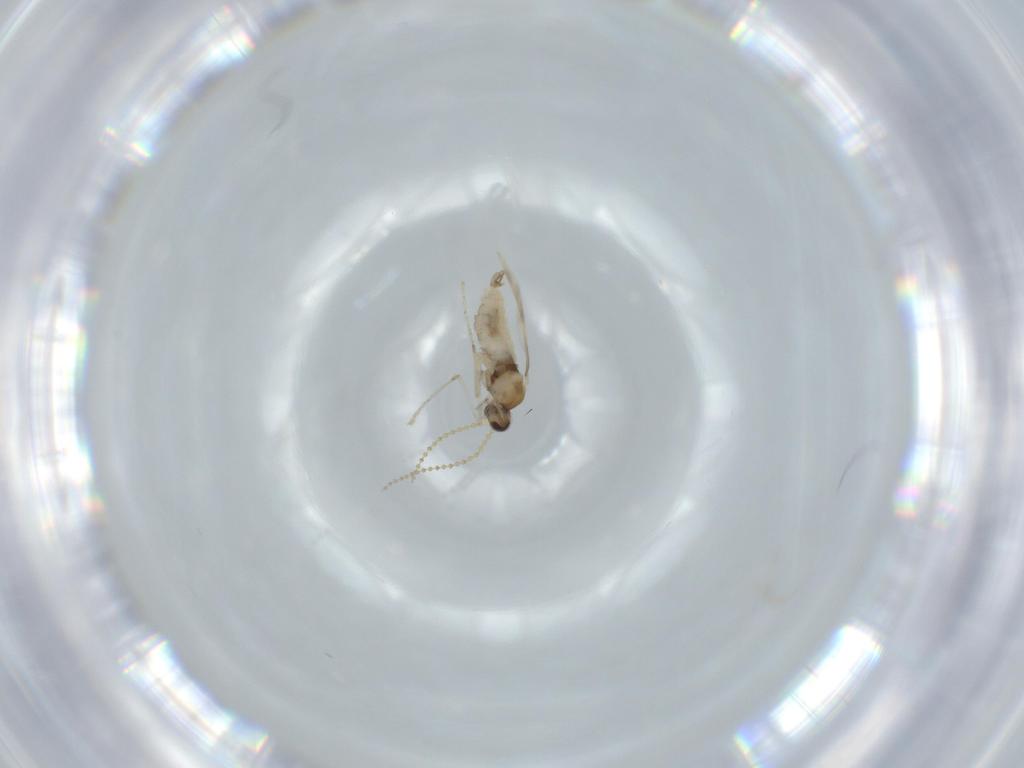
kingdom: Animalia
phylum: Arthropoda
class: Insecta
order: Diptera
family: Cecidomyiidae
